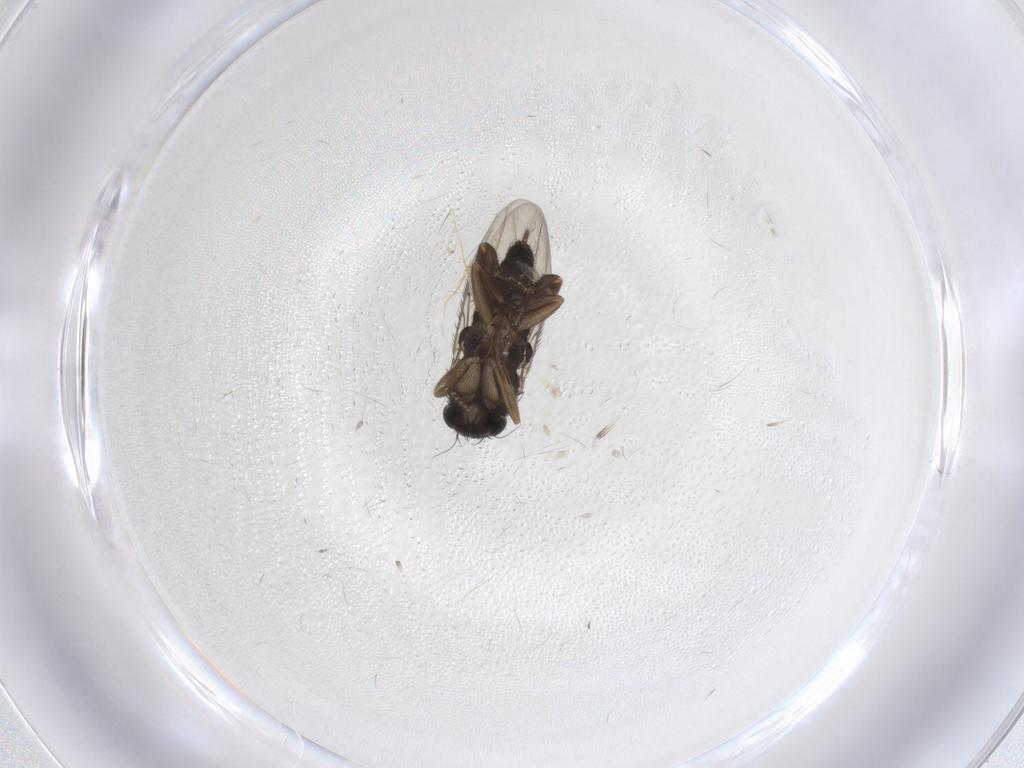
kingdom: Animalia
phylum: Arthropoda
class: Insecta
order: Diptera
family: Phoridae
